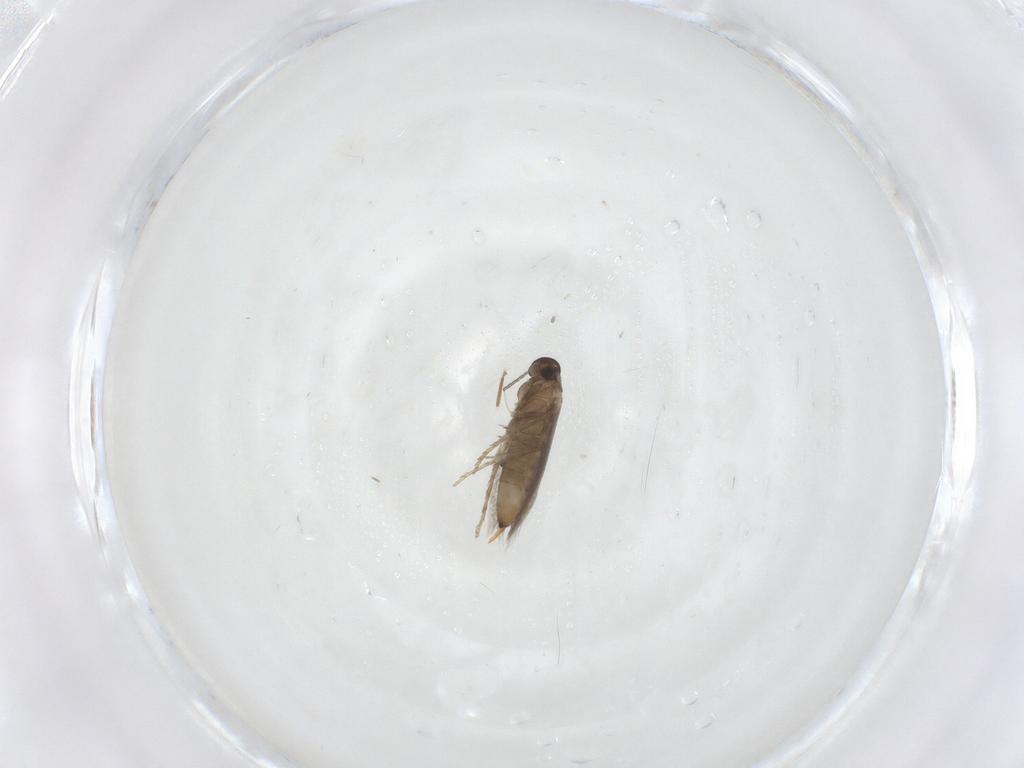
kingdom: Animalia
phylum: Arthropoda
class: Insecta
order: Lepidoptera
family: Heliozelidae
